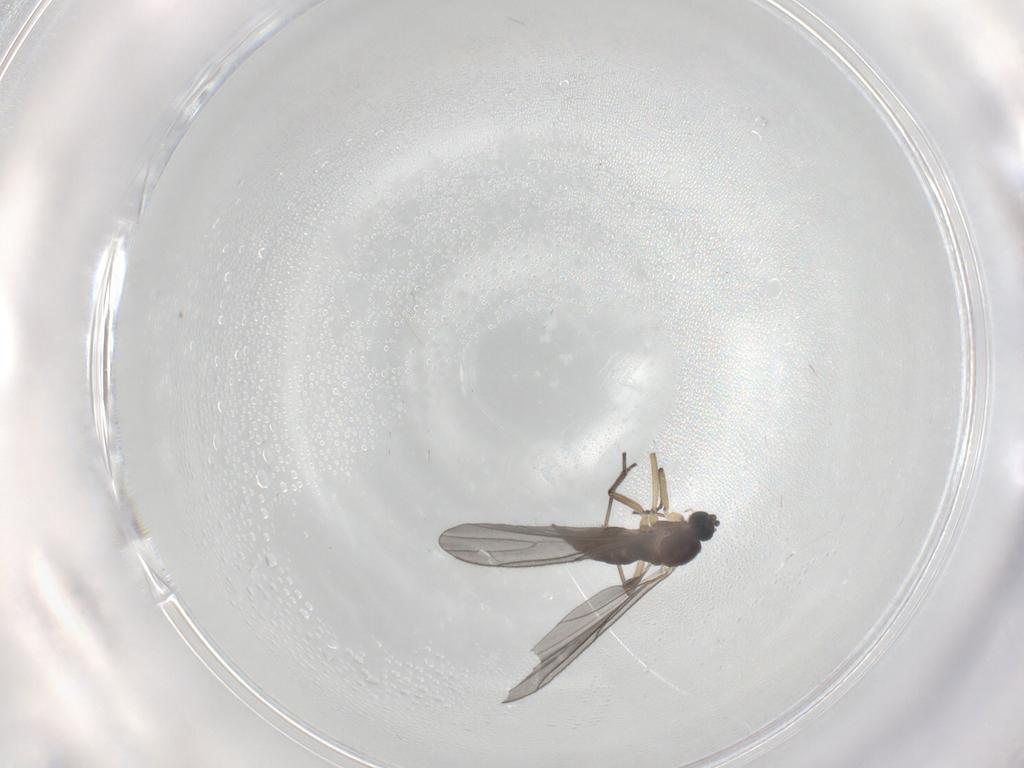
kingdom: Animalia
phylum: Arthropoda
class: Insecta
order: Diptera
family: Sciaridae
